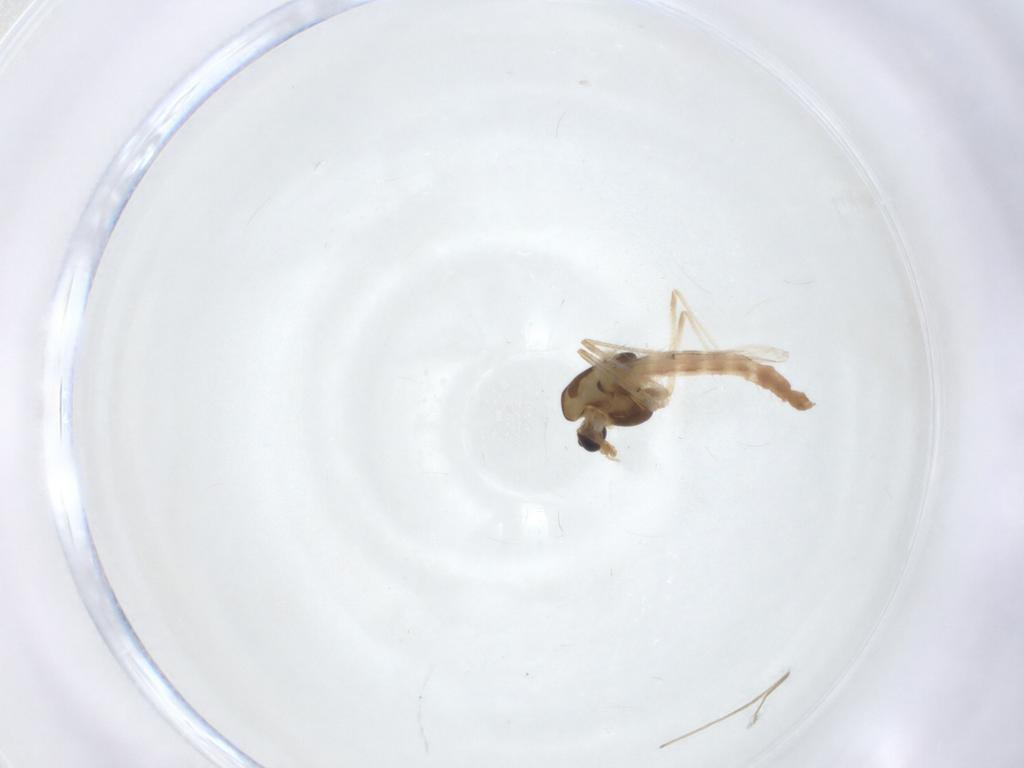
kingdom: Animalia
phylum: Arthropoda
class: Insecta
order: Diptera
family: Chironomidae
